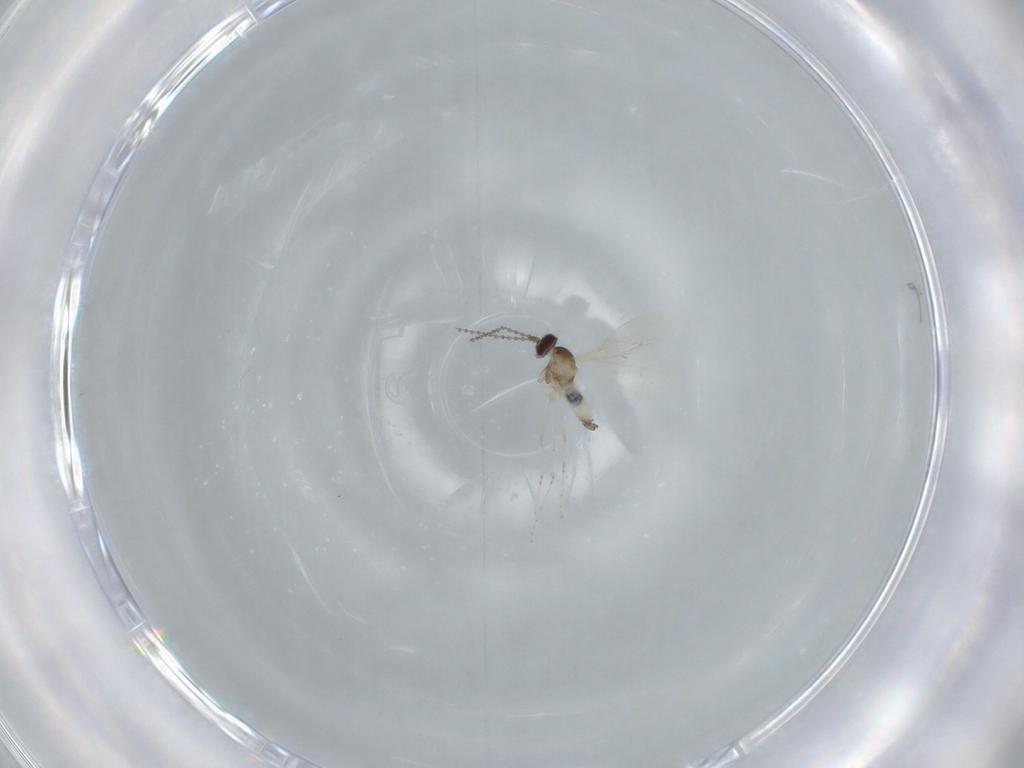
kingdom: Animalia
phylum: Arthropoda
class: Insecta
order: Diptera
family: Cecidomyiidae
